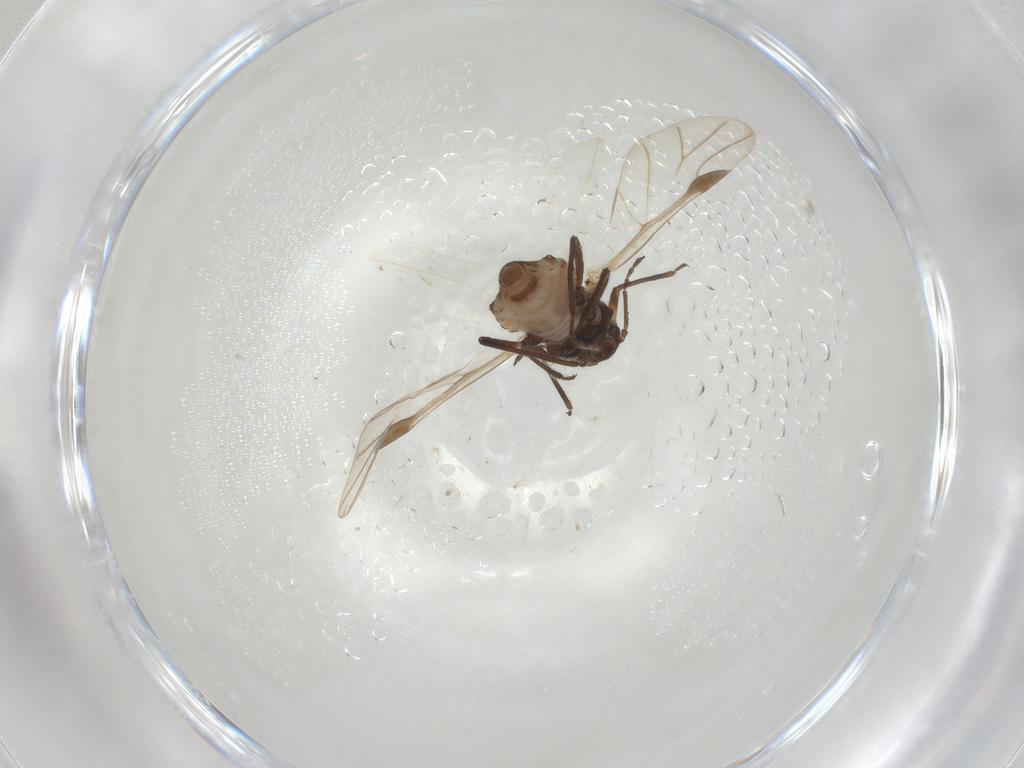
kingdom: Animalia
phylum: Arthropoda
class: Insecta
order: Hemiptera
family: Aphididae
